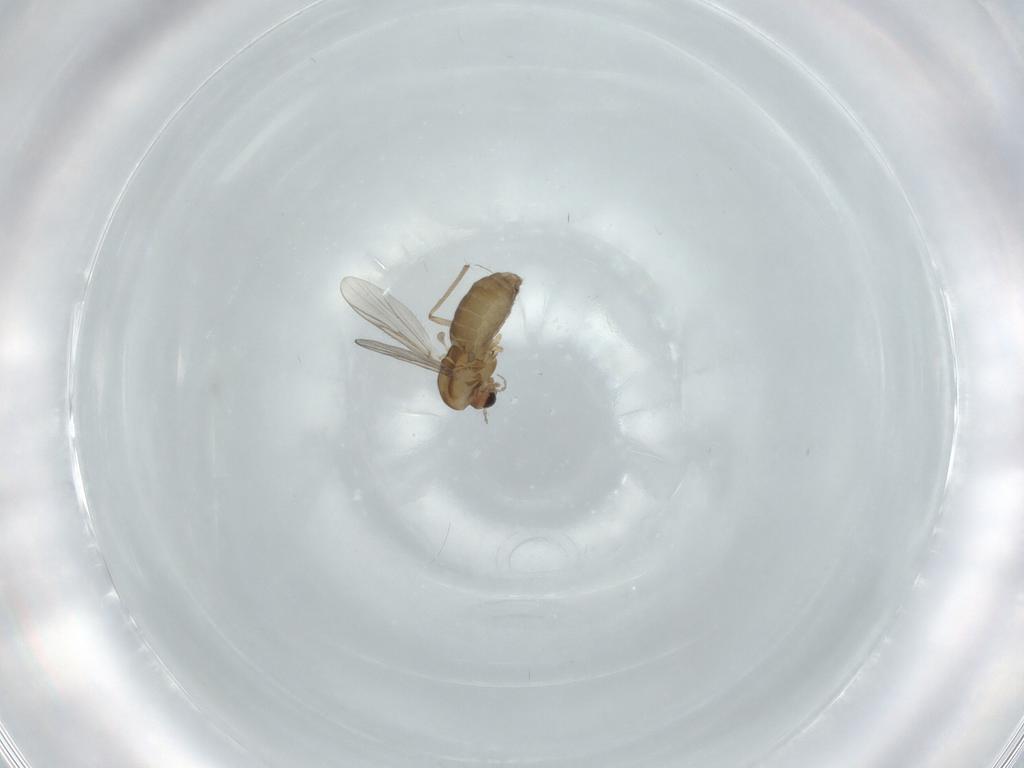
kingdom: Animalia
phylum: Arthropoda
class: Insecta
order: Diptera
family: Chironomidae
